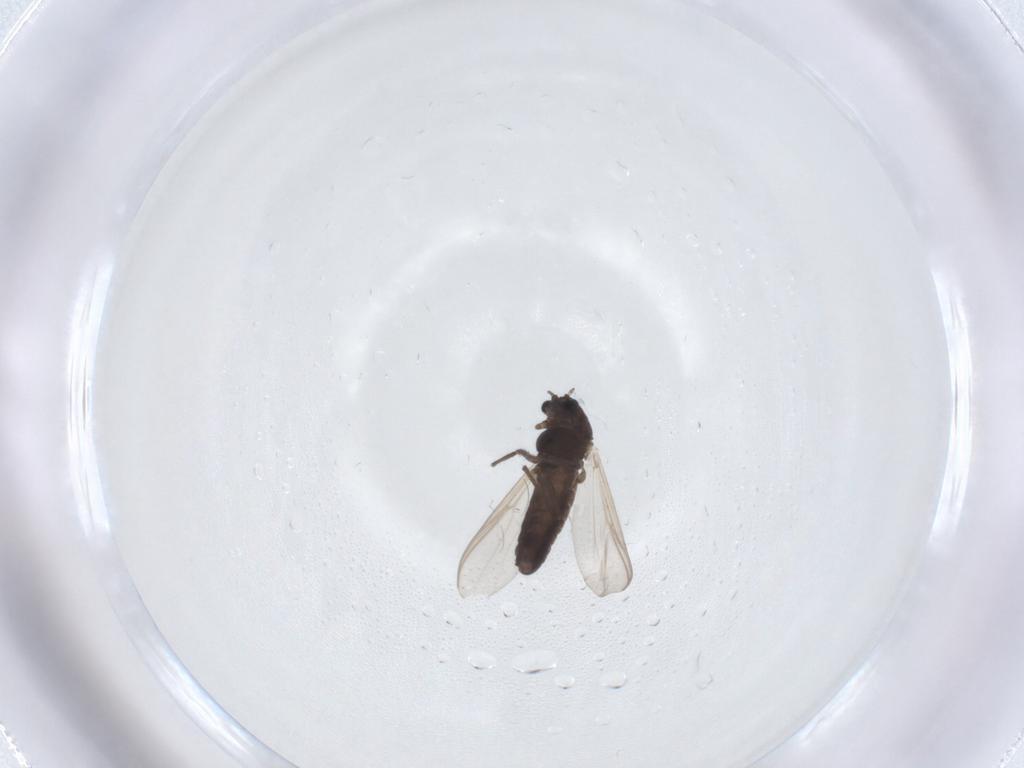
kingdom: Animalia
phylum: Arthropoda
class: Insecta
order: Diptera
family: Chironomidae
